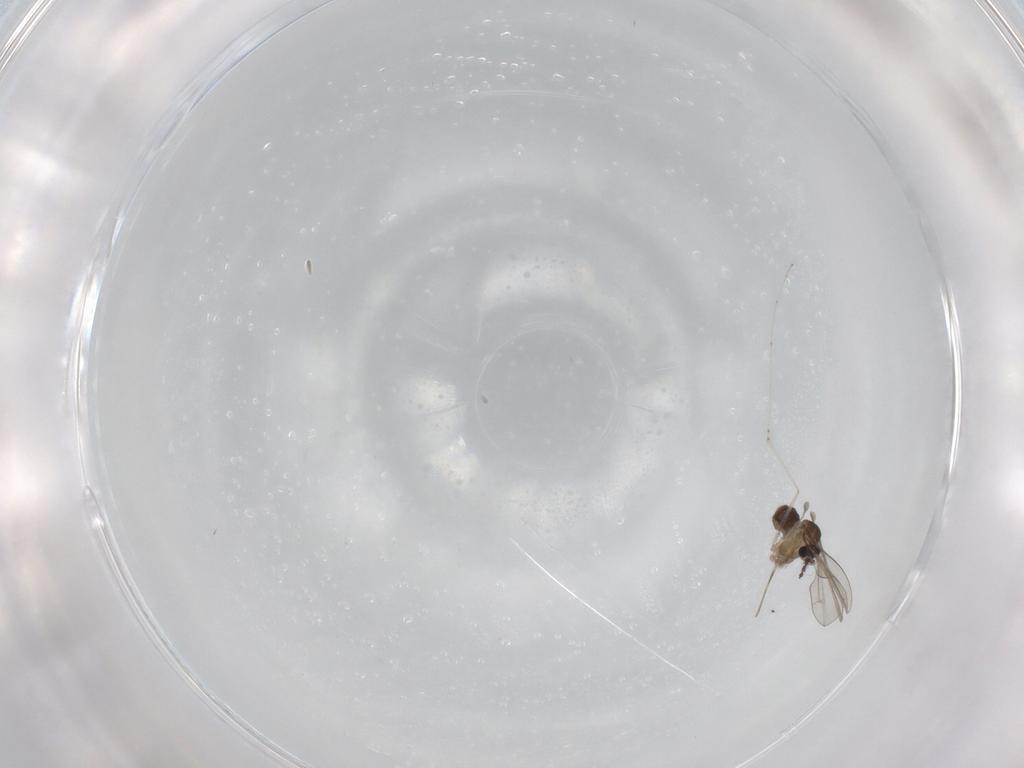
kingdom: Animalia
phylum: Arthropoda
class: Insecta
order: Diptera
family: Cecidomyiidae
